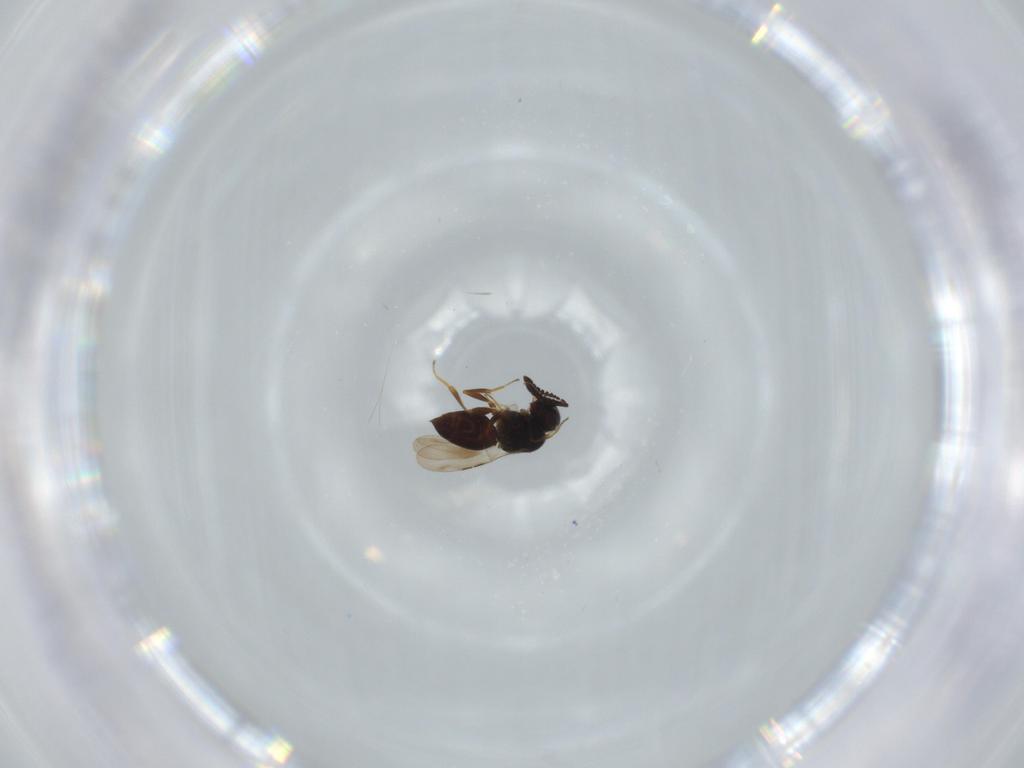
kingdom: Animalia
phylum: Arthropoda
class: Insecta
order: Hymenoptera
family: Ceraphronidae
